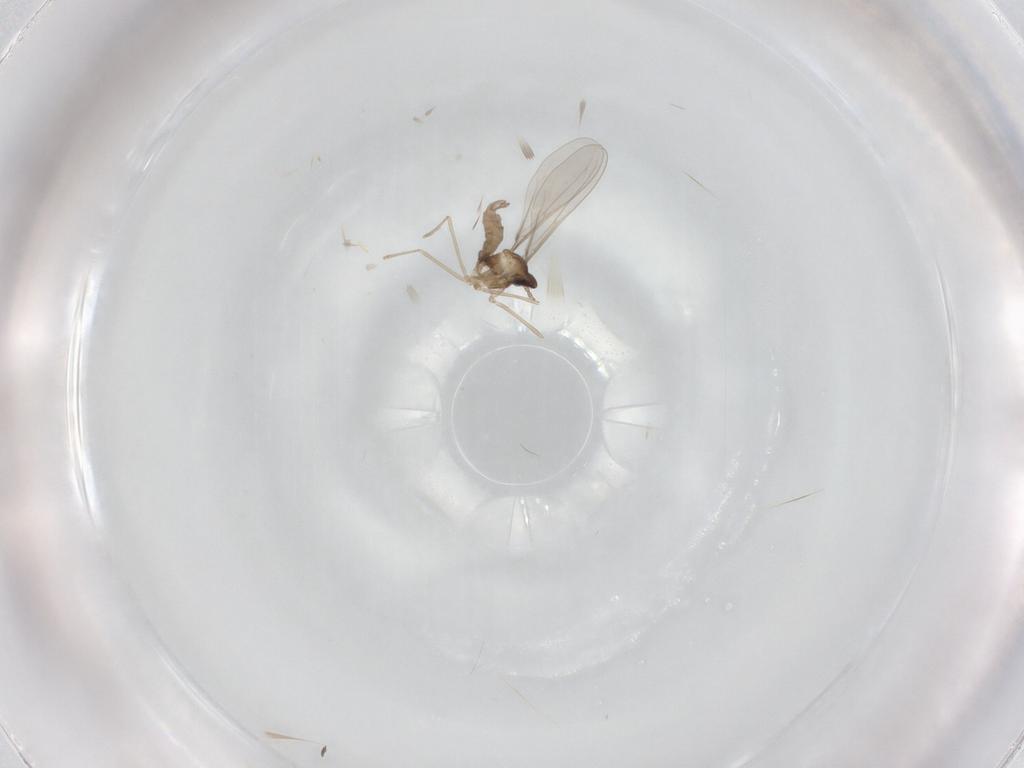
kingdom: Animalia
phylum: Arthropoda
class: Insecta
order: Diptera
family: Cecidomyiidae
